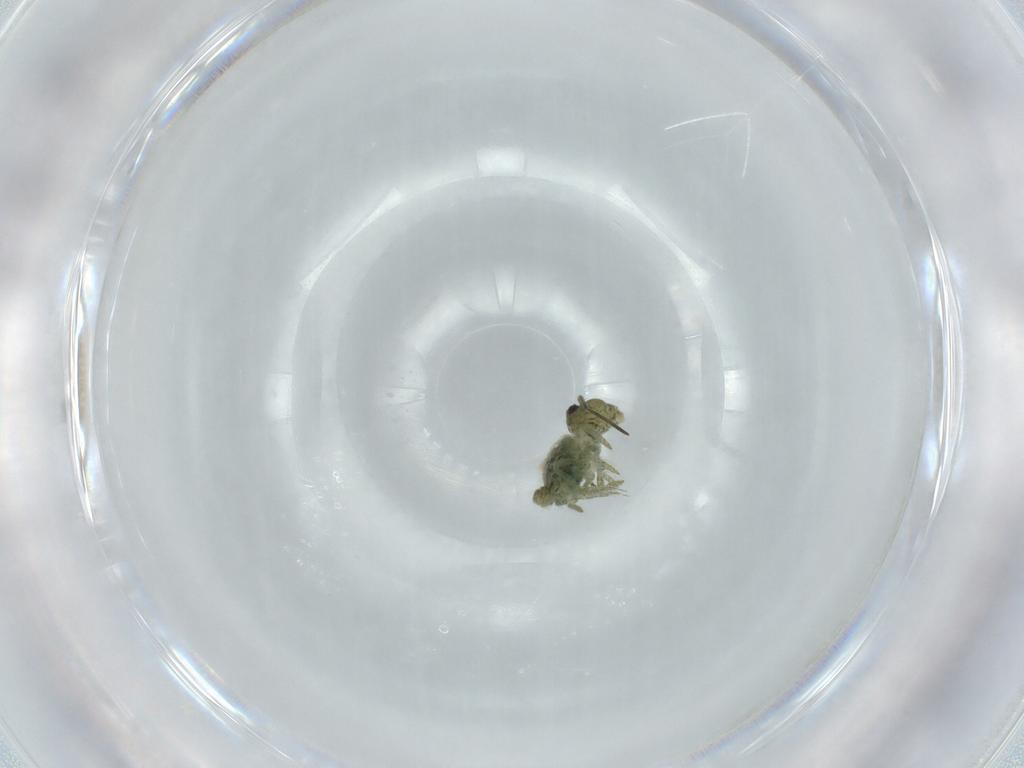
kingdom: Animalia
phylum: Arthropoda
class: Collembola
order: Symphypleona
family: Sminthuridae
